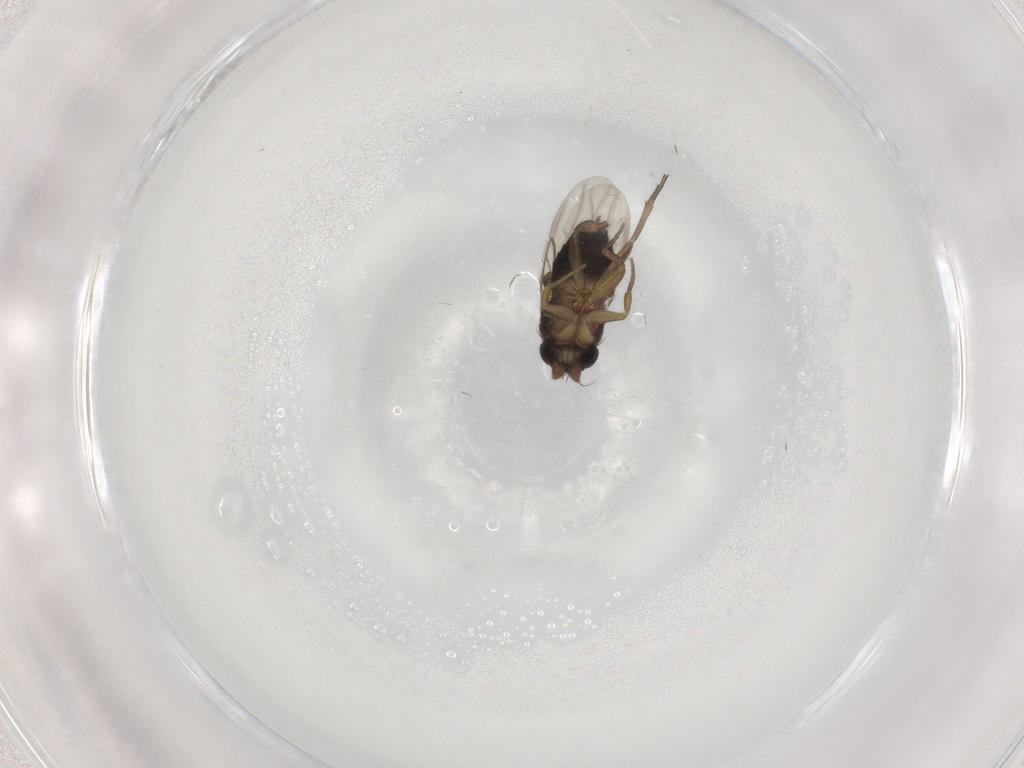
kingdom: Animalia
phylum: Arthropoda
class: Insecta
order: Diptera
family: Phoridae
